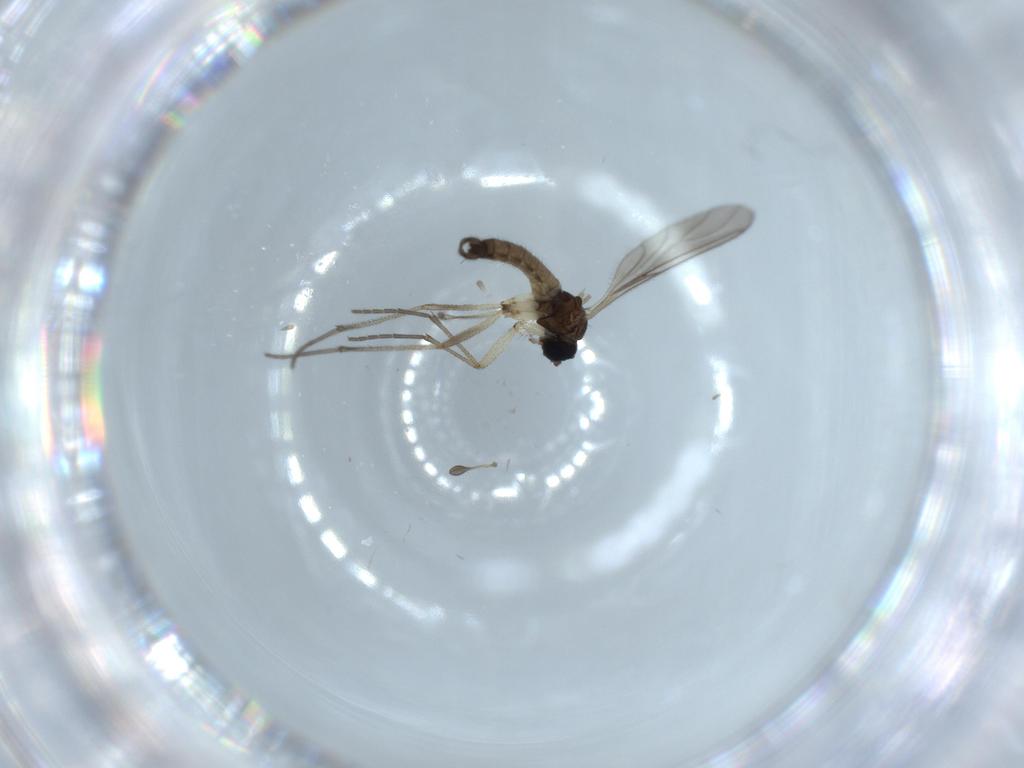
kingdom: Animalia
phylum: Arthropoda
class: Insecta
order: Diptera
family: Sciaridae
